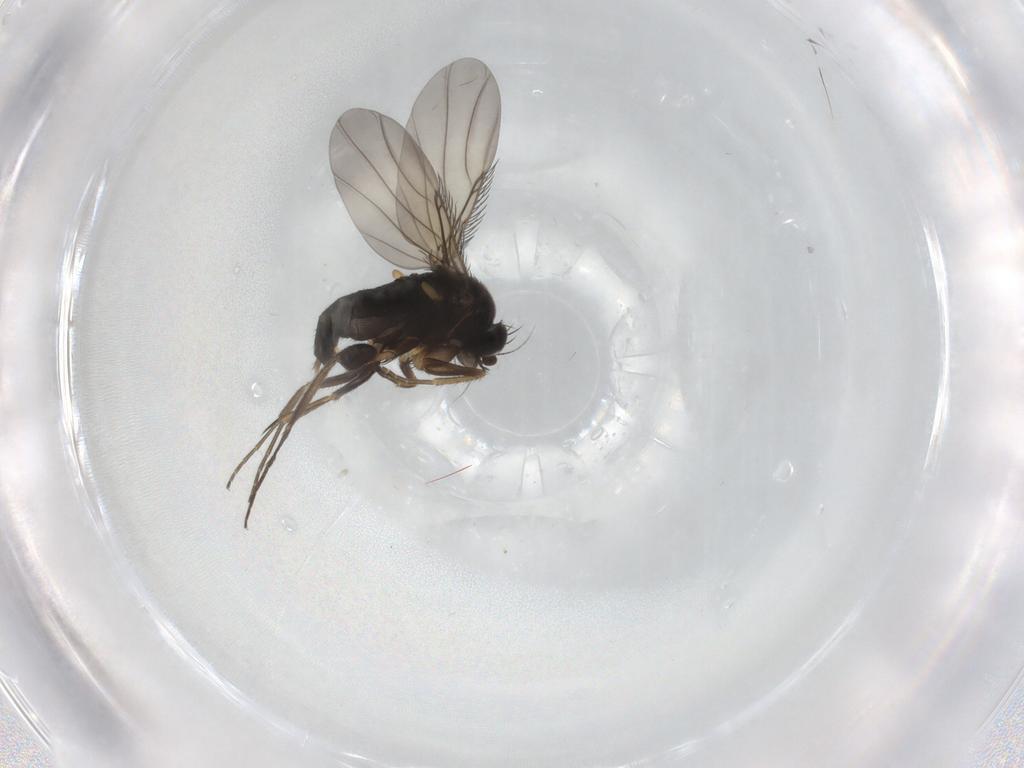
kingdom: Animalia
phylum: Arthropoda
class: Insecta
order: Diptera
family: Phoridae
